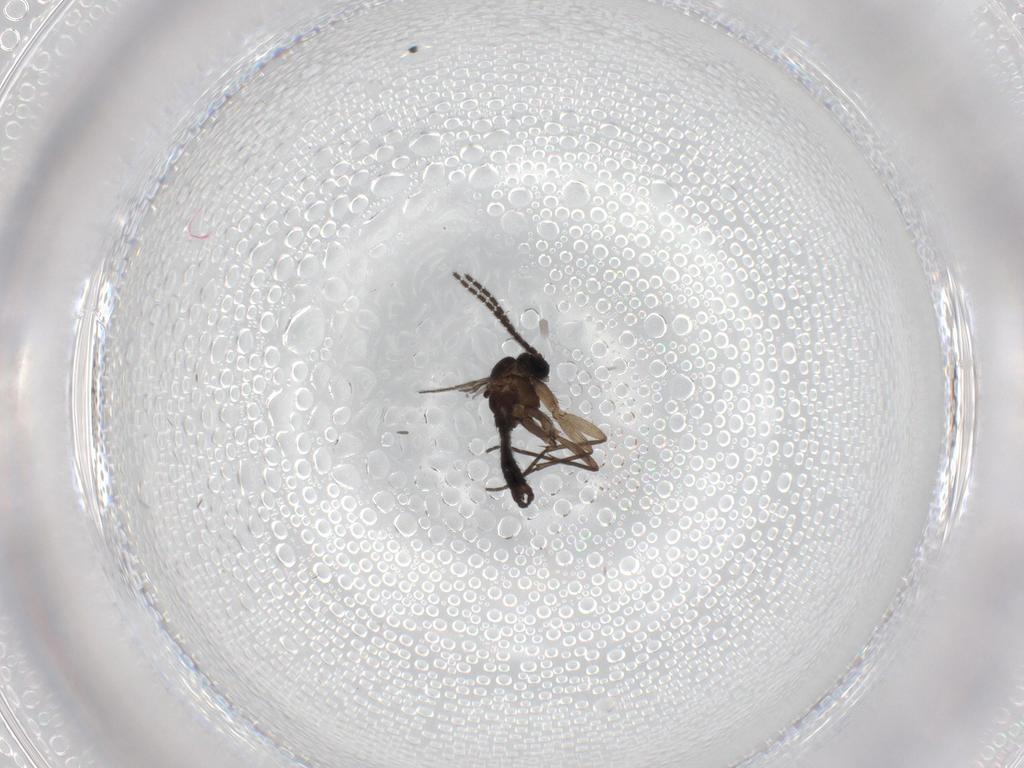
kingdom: Animalia
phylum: Arthropoda
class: Insecta
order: Diptera
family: Sciaridae
